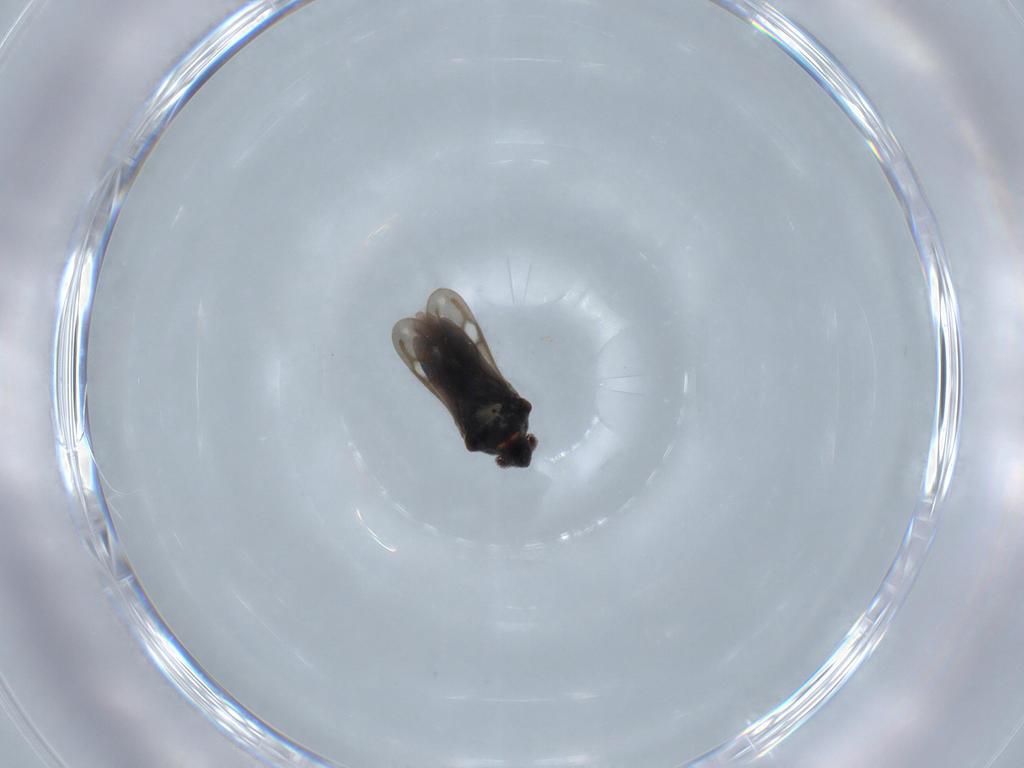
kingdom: Animalia
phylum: Arthropoda
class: Insecta
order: Hemiptera
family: Veliidae
